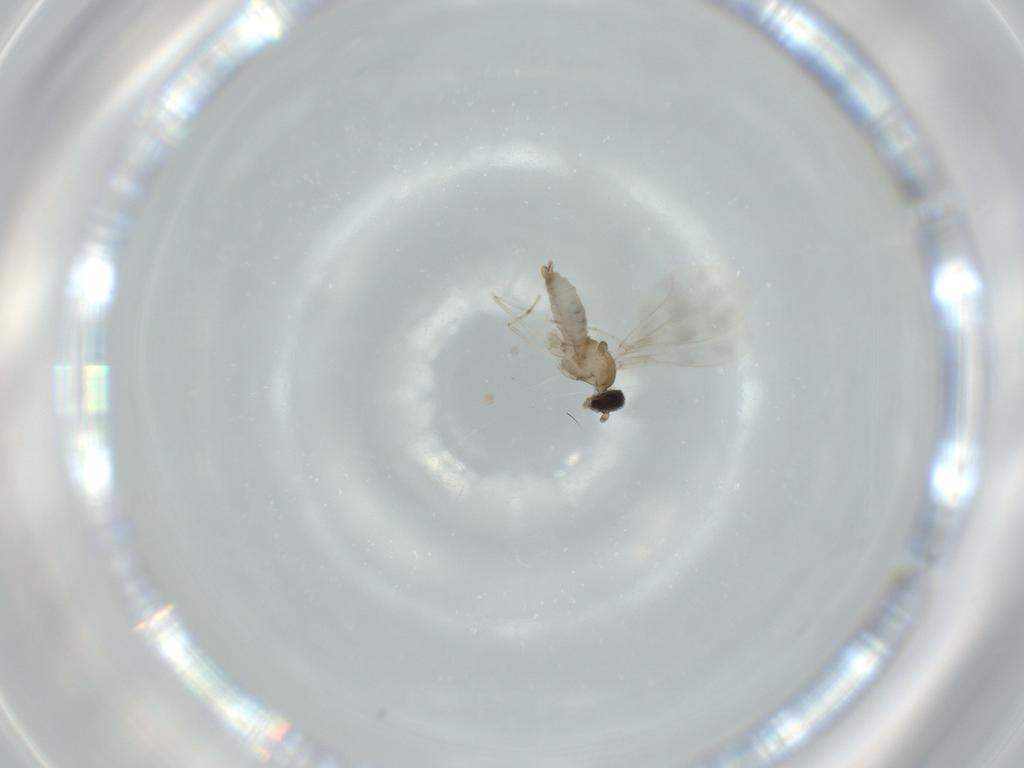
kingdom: Animalia
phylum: Arthropoda
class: Insecta
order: Diptera
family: Cecidomyiidae
